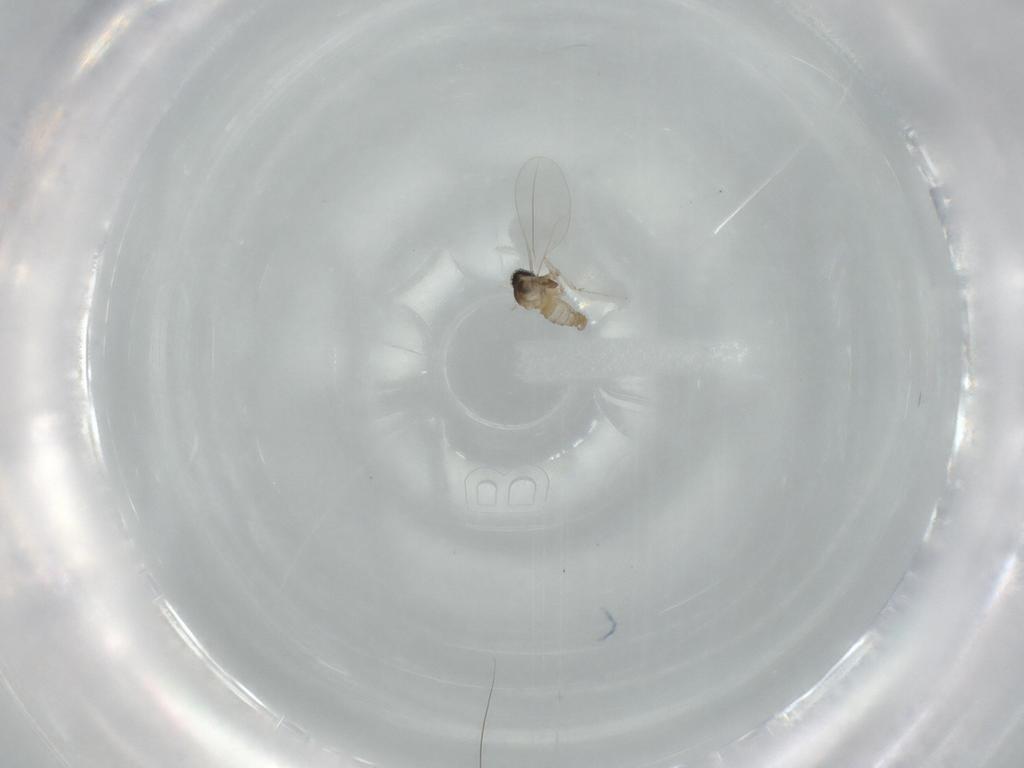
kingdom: Animalia
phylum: Arthropoda
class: Insecta
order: Diptera
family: Cecidomyiidae
